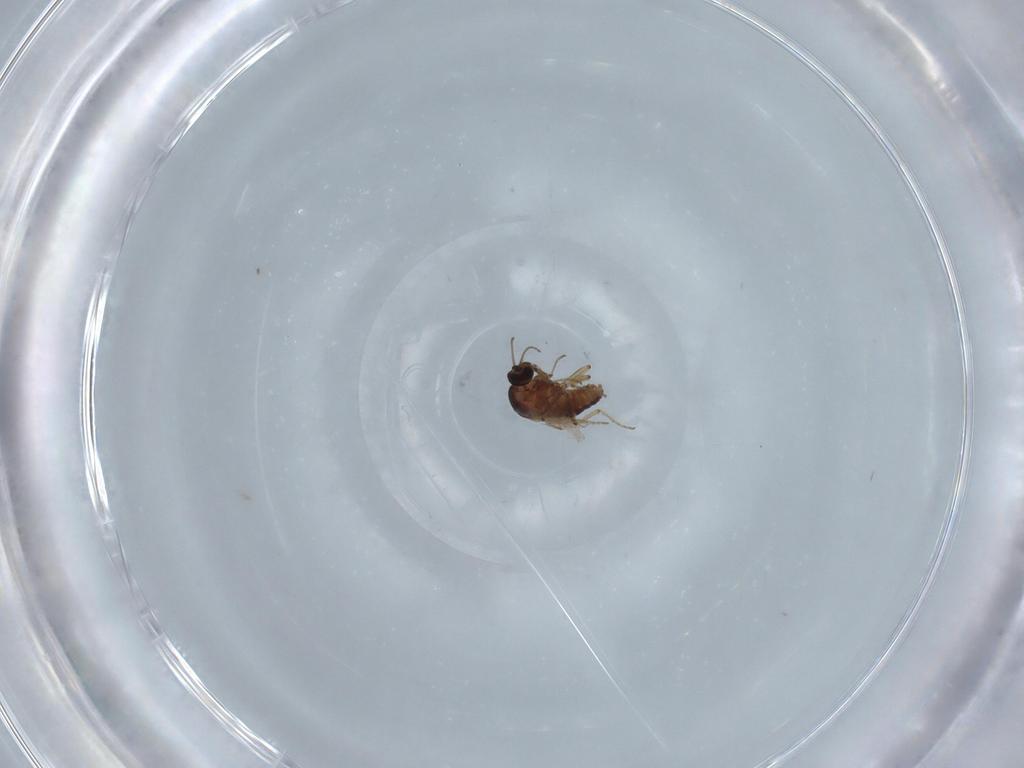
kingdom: Animalia
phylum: Arthropoda
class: Insecta
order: Diptera
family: Ceratopogonidae
